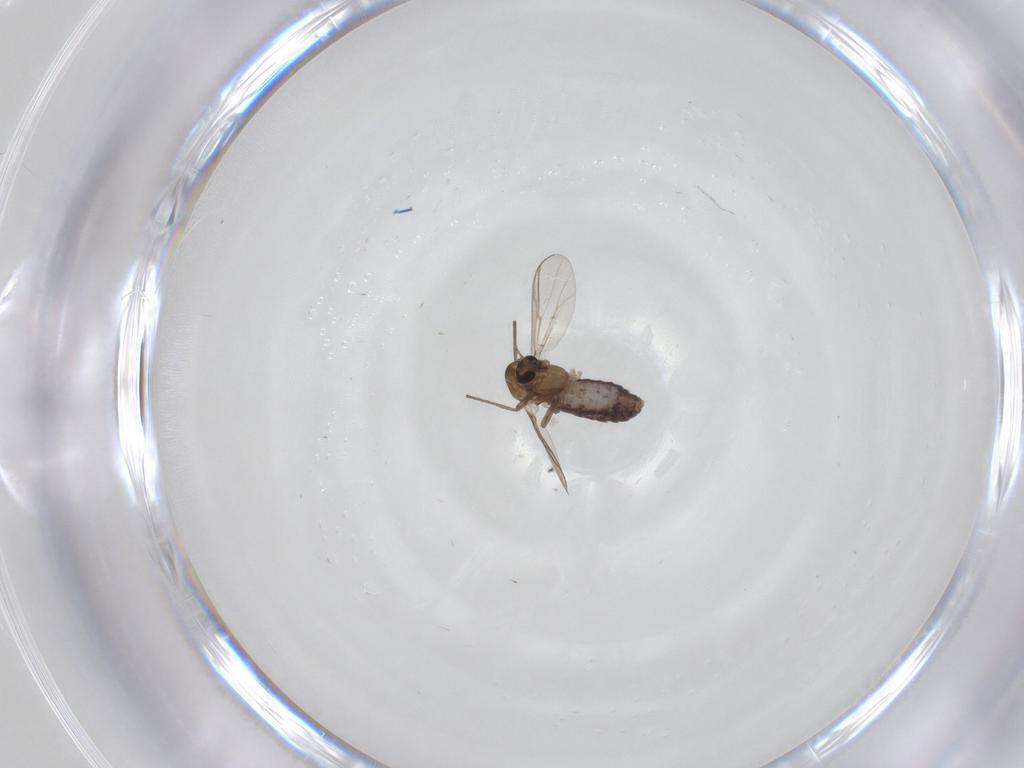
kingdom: Animalia
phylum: Arthropoda
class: Insecta
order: Diptera
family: Chironomidae
